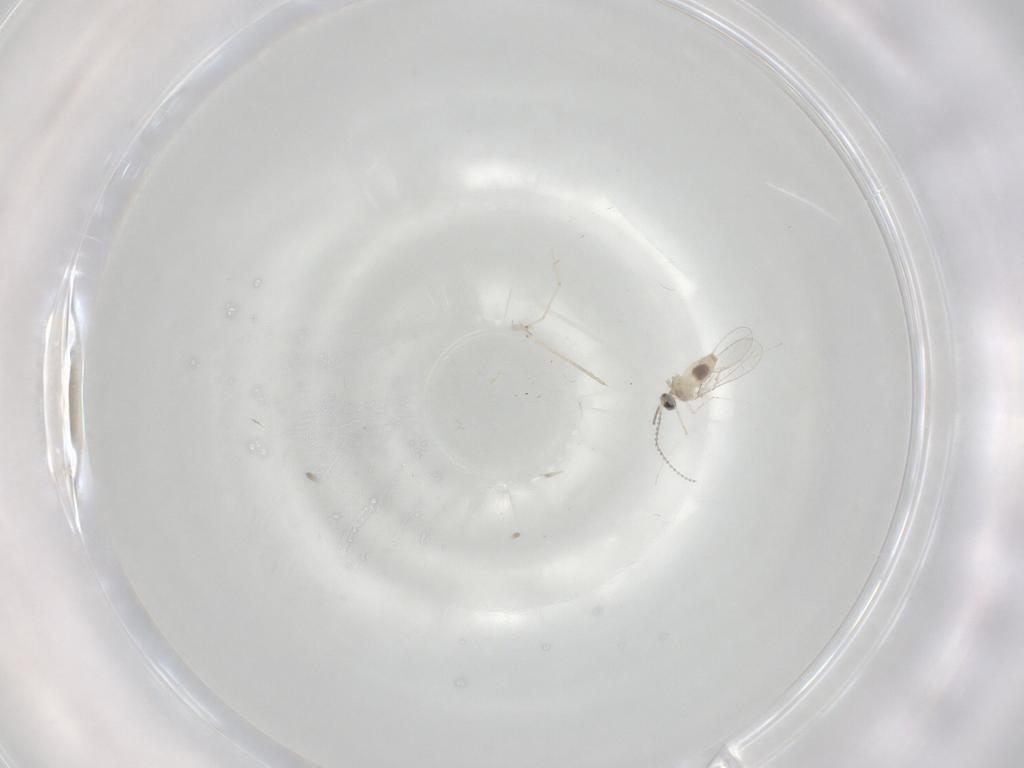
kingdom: Animalia
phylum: Arthropoda
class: Insecta
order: Diptera
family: Cecidomyiidae
